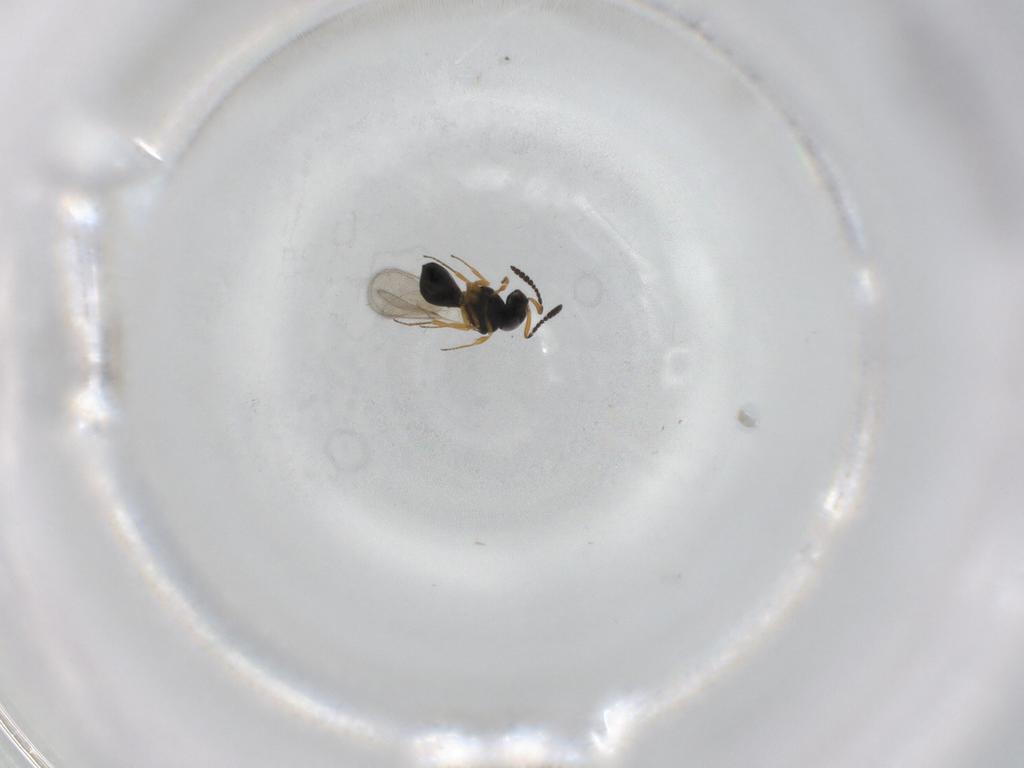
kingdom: Animalia
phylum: Arthropoda
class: Insecta
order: Hymenoptera
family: Scelionidae
